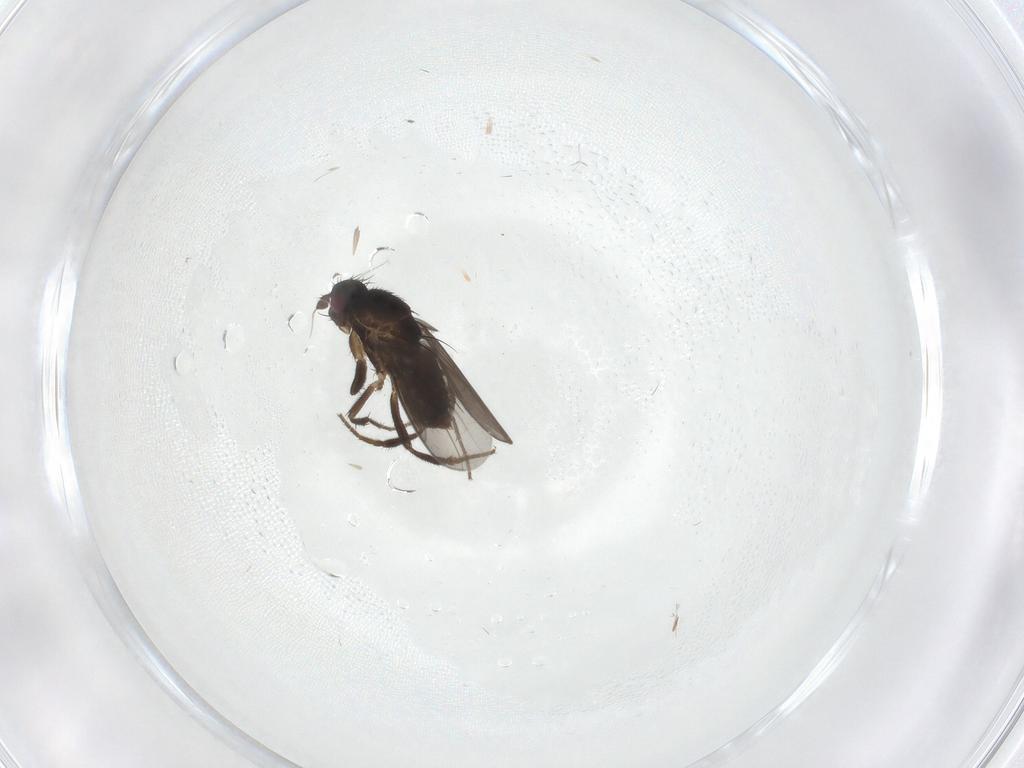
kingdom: Animalia
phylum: Arthropoda
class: Insecta
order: Diptera
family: Sphaeroceridae
